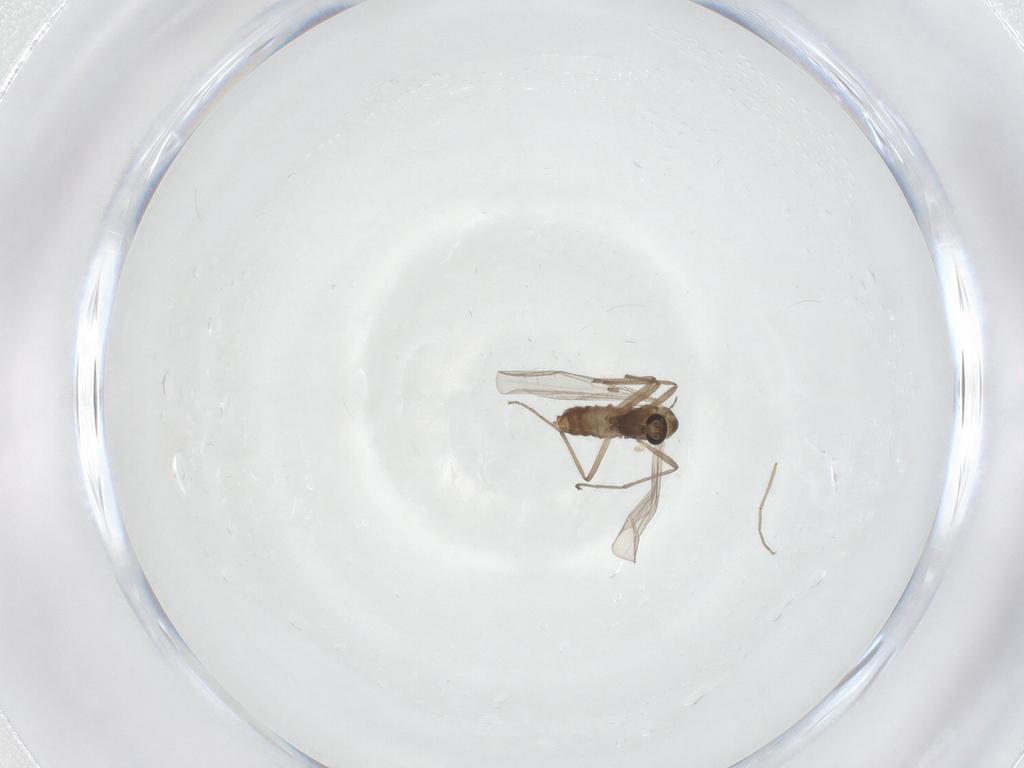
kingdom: Animalia
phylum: Arthropoda
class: Insecta
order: Diptera
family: Chironomidae
